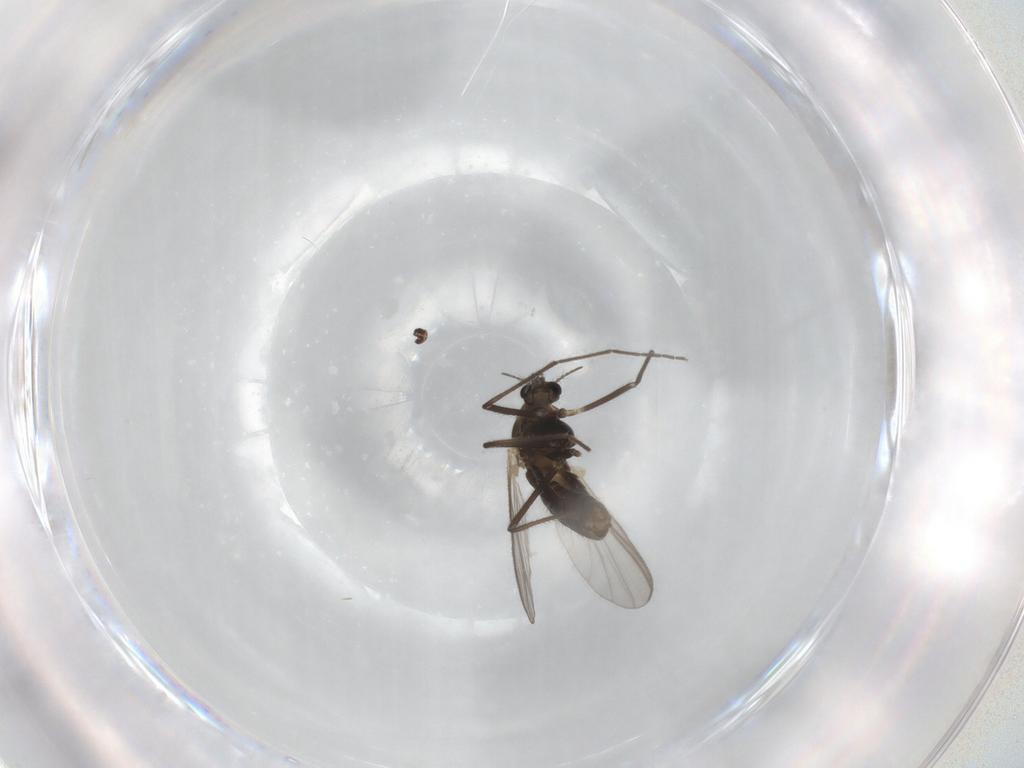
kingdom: Animalia
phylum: Arthropoda
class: Insecta
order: Diptera
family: Chironomidae
